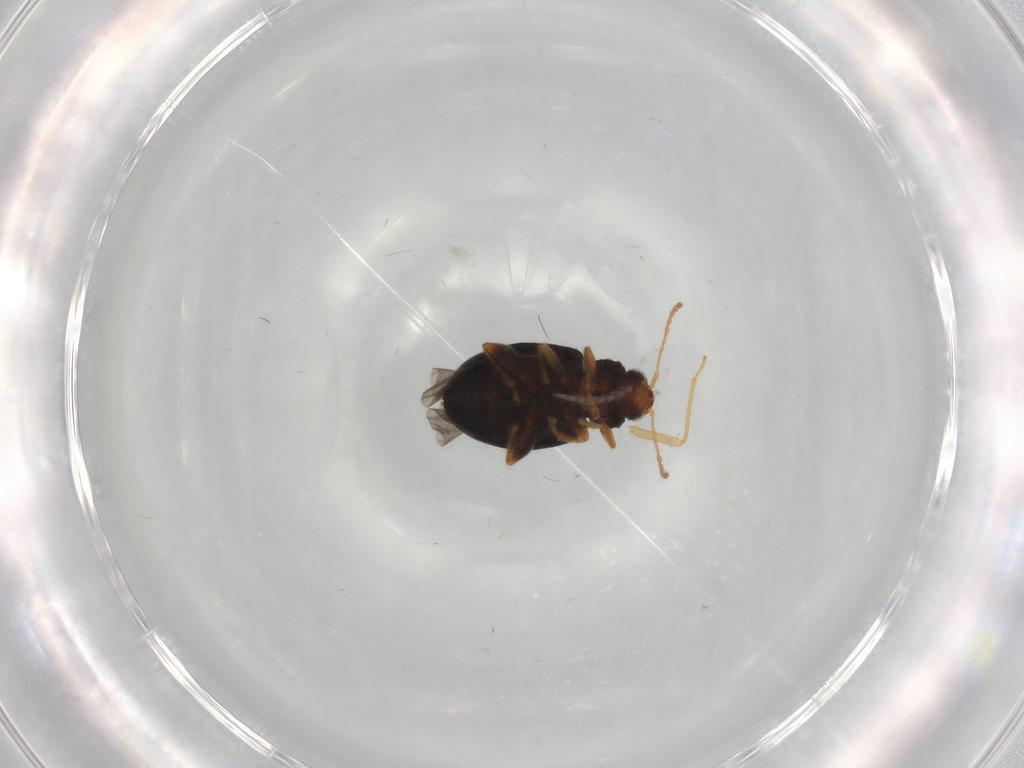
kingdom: Animalia
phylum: Arthropoda
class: Insecta
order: Coleoptera
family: Chrysomelidae
